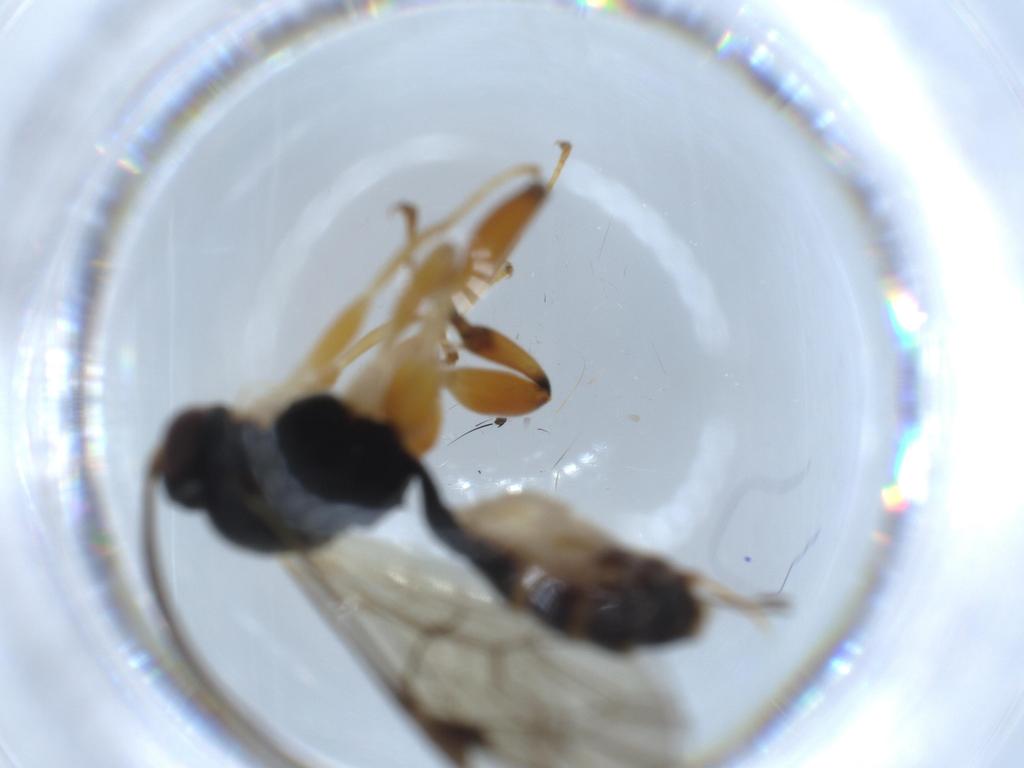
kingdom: Animalia
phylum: Arthropoda
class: Insecta
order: Hymenoptera
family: Ichneumonidae
